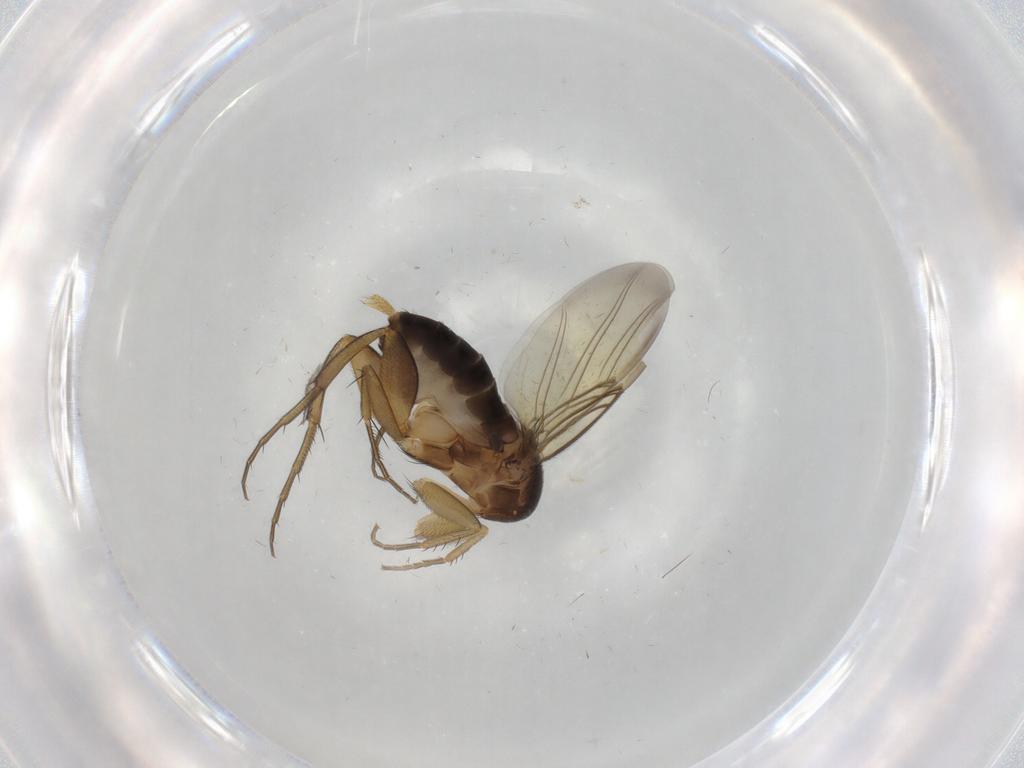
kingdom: Animalia
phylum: Arthropoda
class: Insecta
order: Diptera
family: Phoridae
